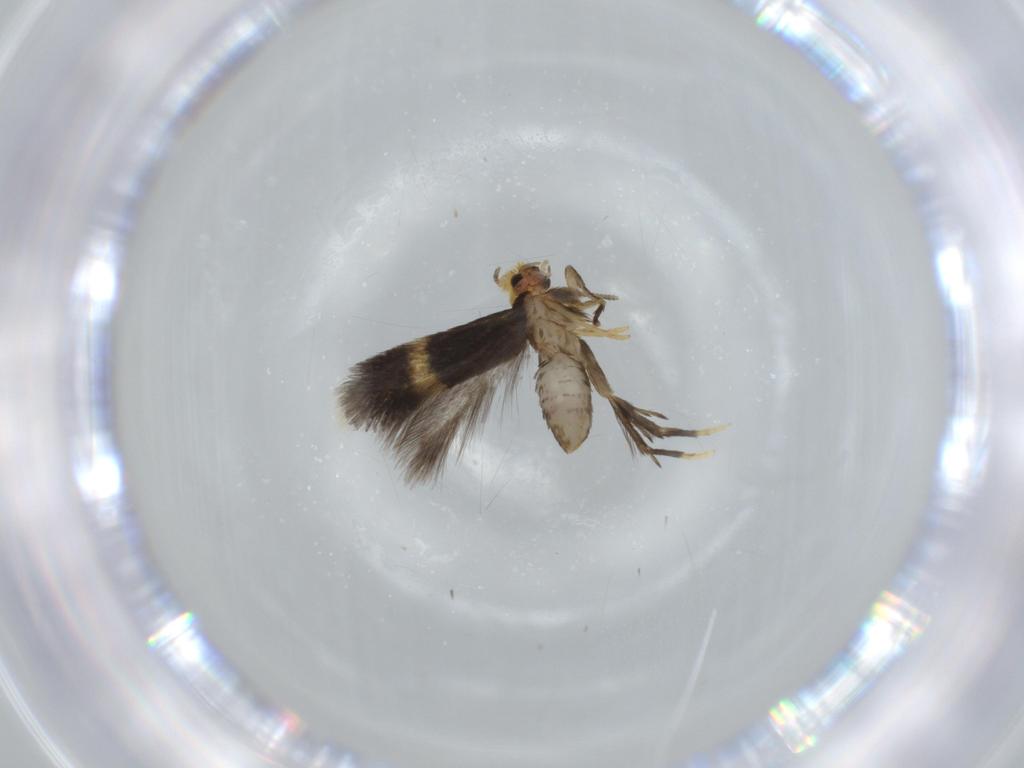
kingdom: Animalia
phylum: Arthropoda
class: Insecta
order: Lepidoptera
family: Nepticulidae
